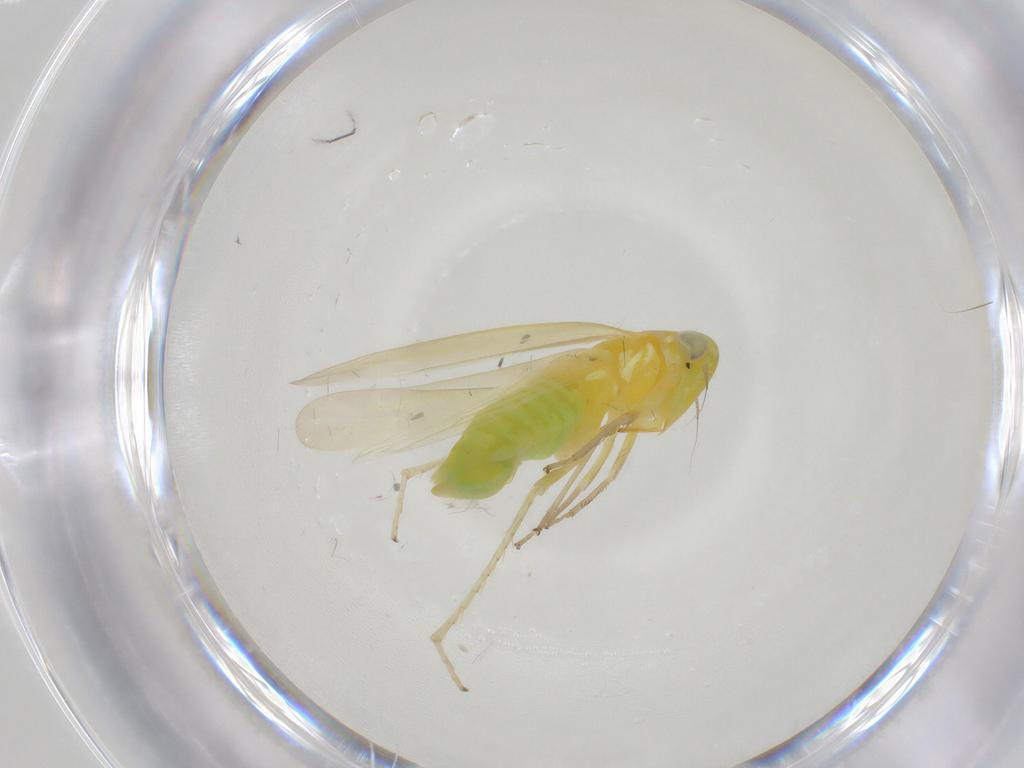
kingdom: Animalia
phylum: Arthropoda
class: Insecta
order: Hemiptera
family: Cicadellidae
